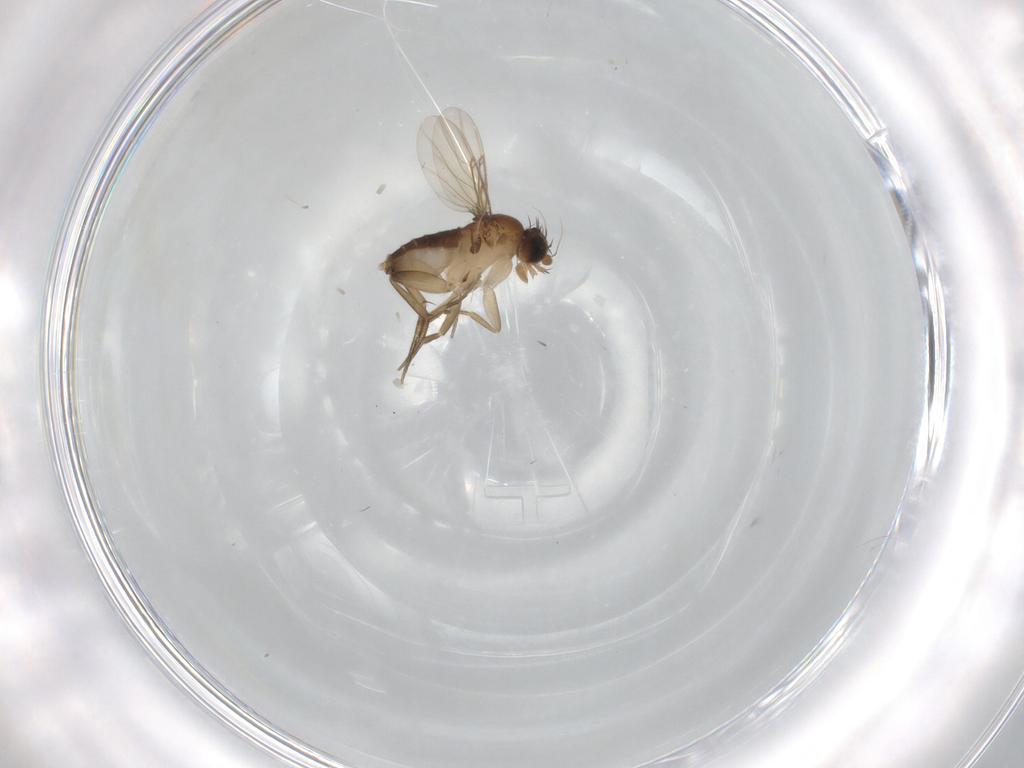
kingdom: Animalia
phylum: Arthropoda
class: Insecta
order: Diptera
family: Phoridae
